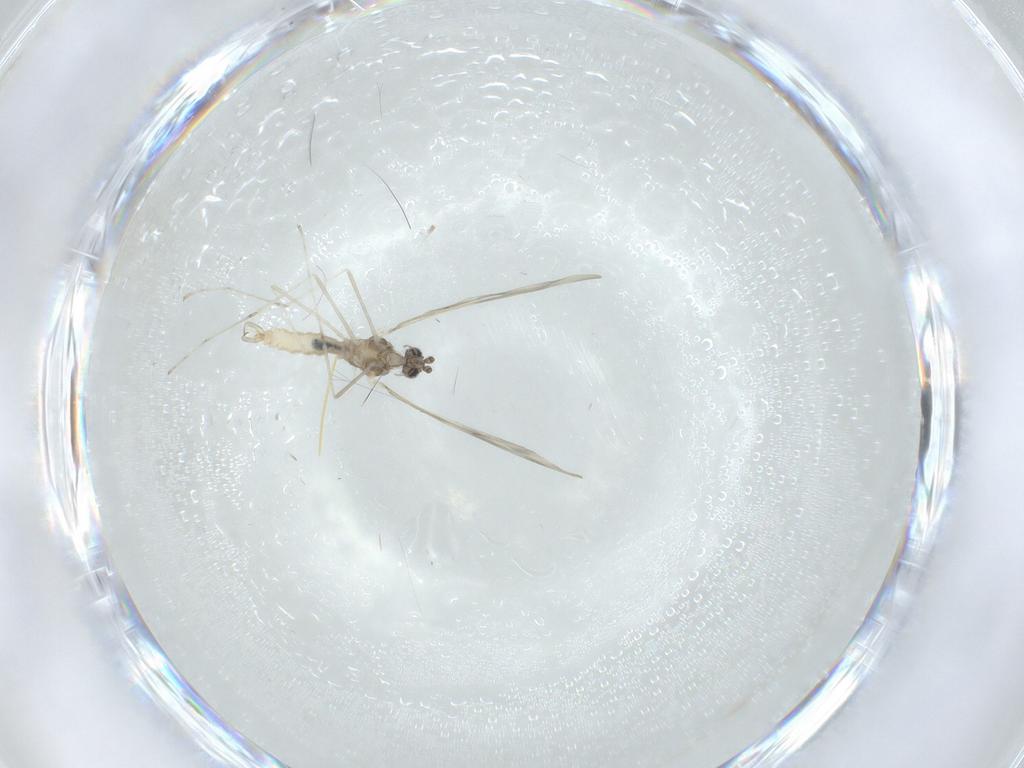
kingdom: Animalia
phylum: Arthropoda
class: Insecta
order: Diptera
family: Cecidomyiidae
